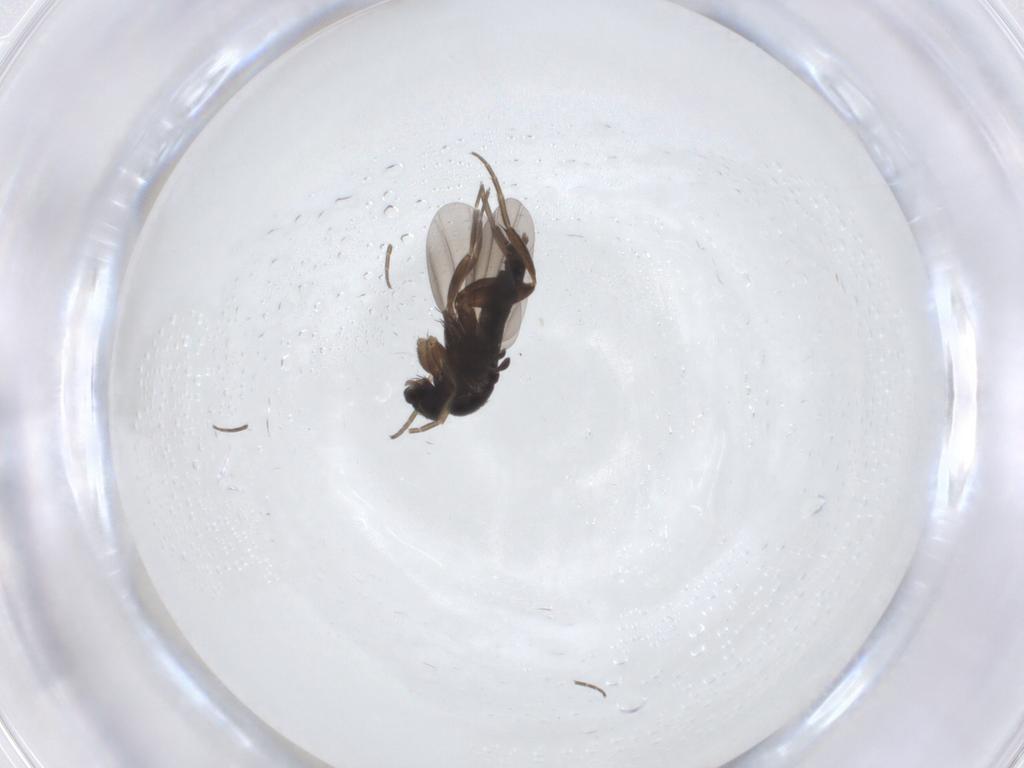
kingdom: Animalia
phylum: Arthropoda
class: Insecta
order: Diptera
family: Phoridae
